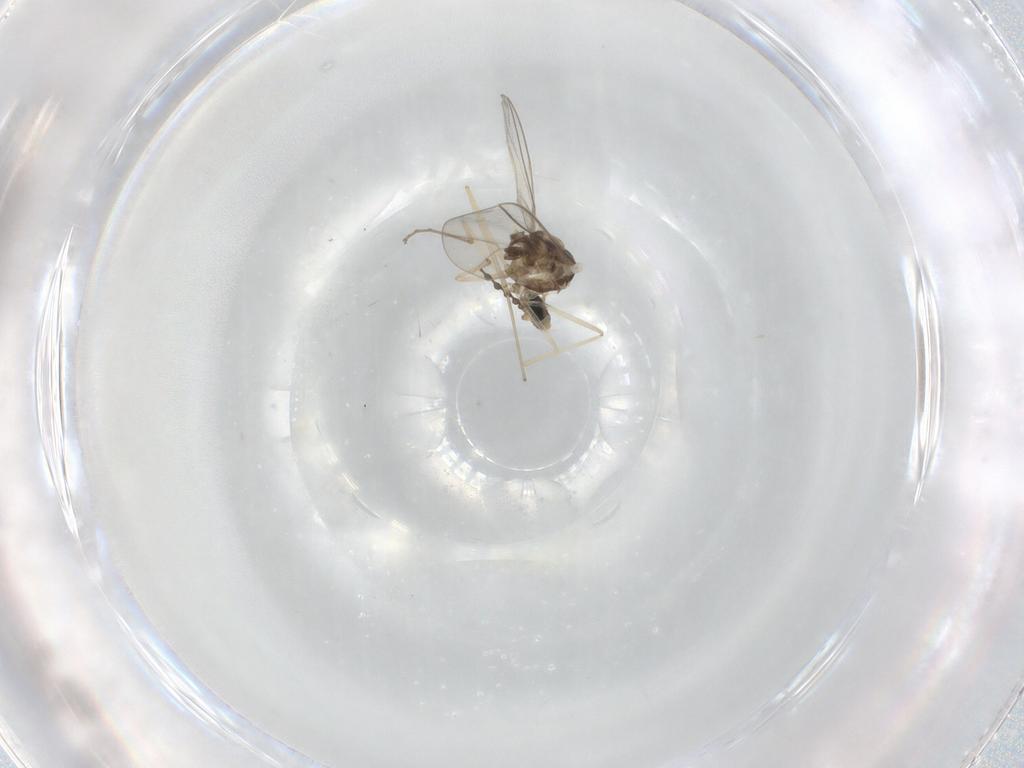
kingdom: Animalia
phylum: Arthropoda
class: Insecta
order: Diptera
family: Cecidomyiidae
